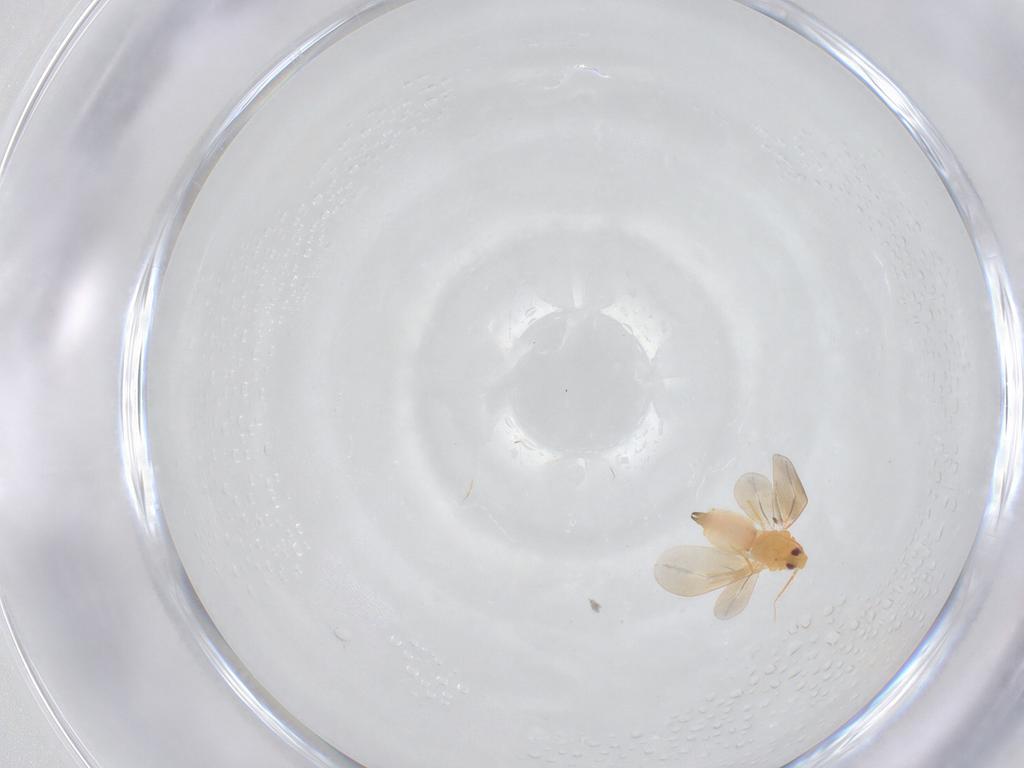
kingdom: Animalia
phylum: Arthropoda
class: Insecta
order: Hemiptera
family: Aleyrodidae
